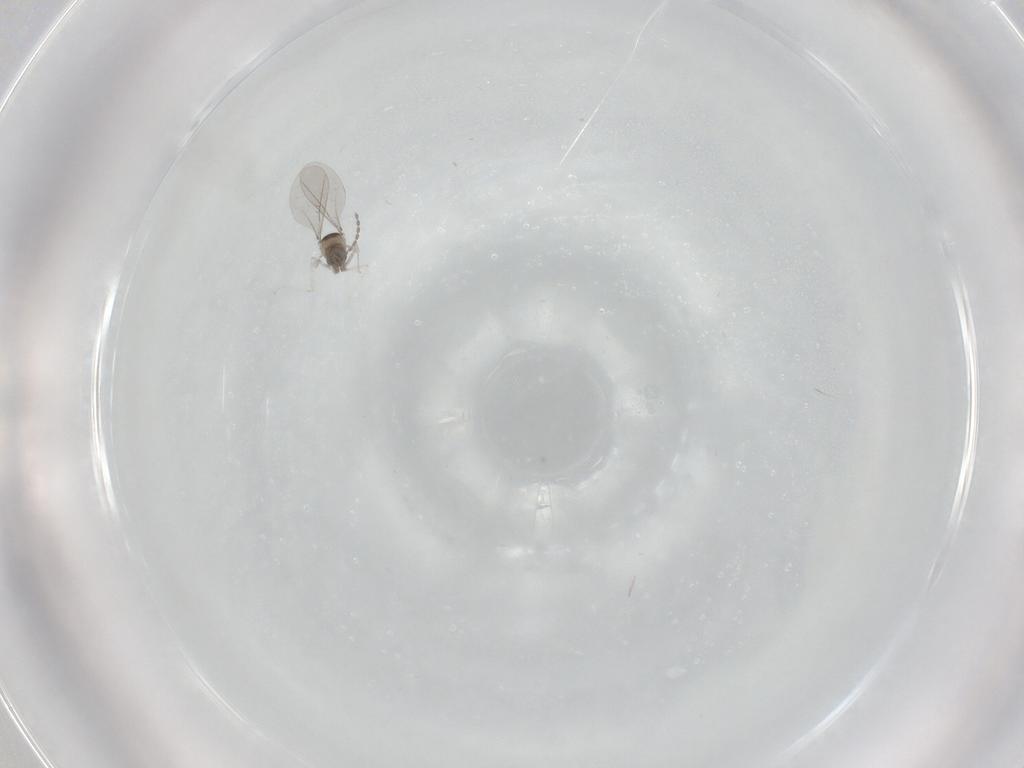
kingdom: Animalia
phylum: Arthropoda
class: Insecta
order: Diptera
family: Cecidomyiidae
